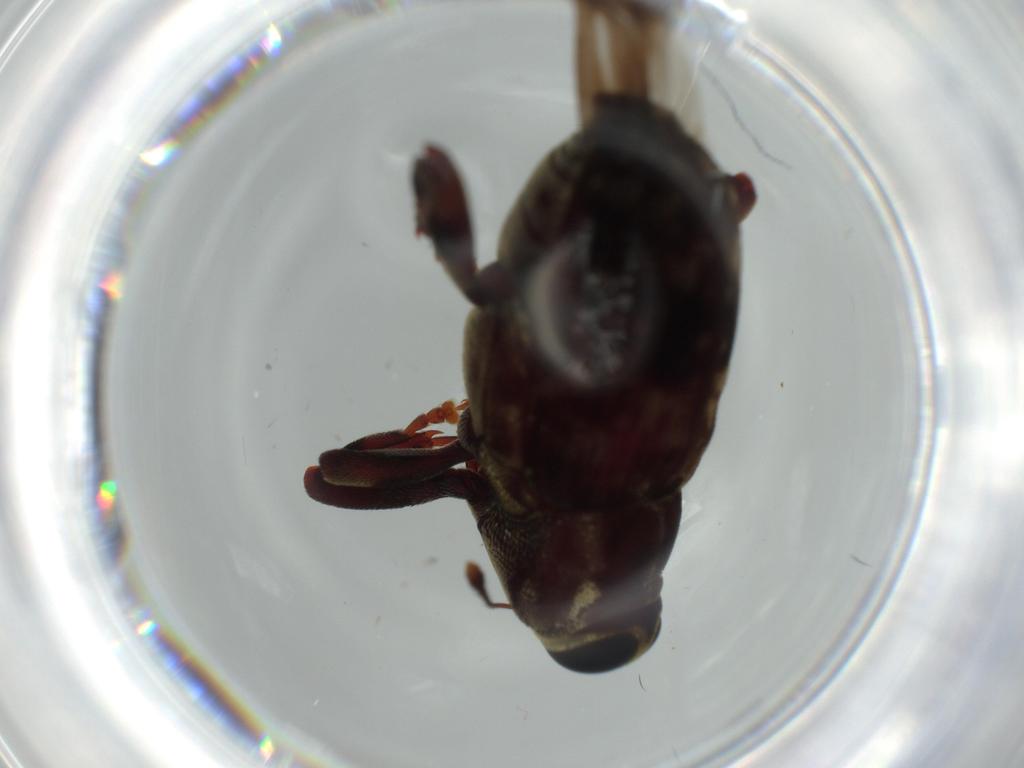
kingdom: Animalia
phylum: Arthropoda
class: Insecta
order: Coleoptera
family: Curculionidae
